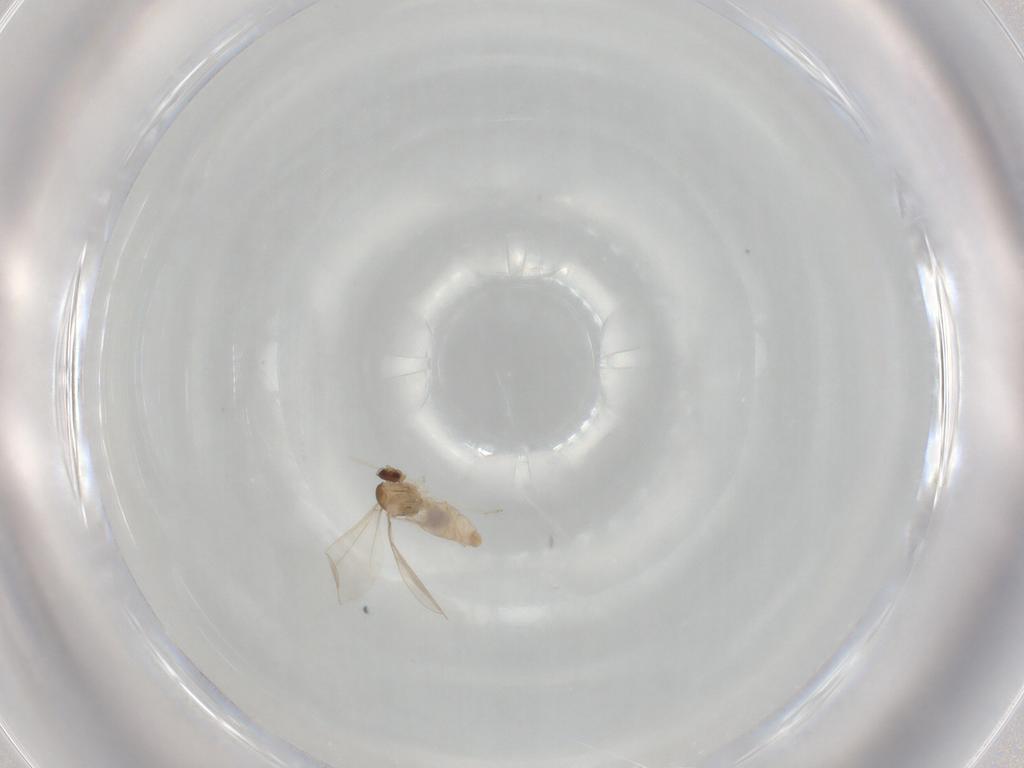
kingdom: Animalia
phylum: Arthropoda
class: Insecta
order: Diptera
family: Cecidomyiidae
